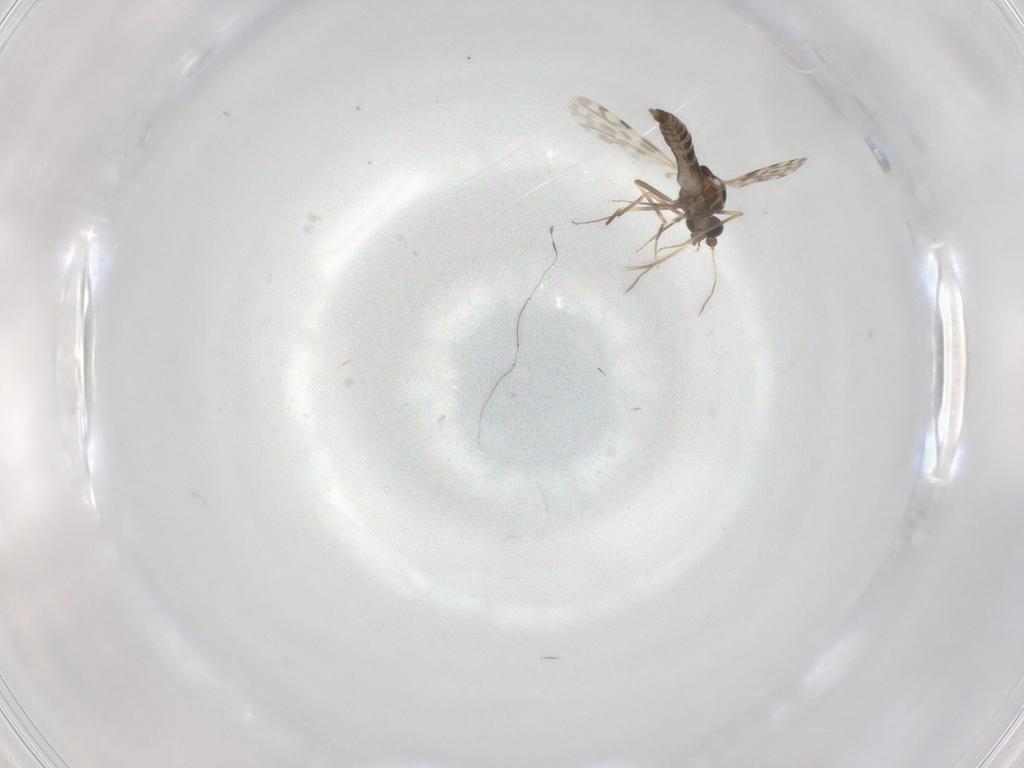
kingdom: Animalia
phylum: Arthropoda
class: Insecta
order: Diptera
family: Ceratopogonidae
